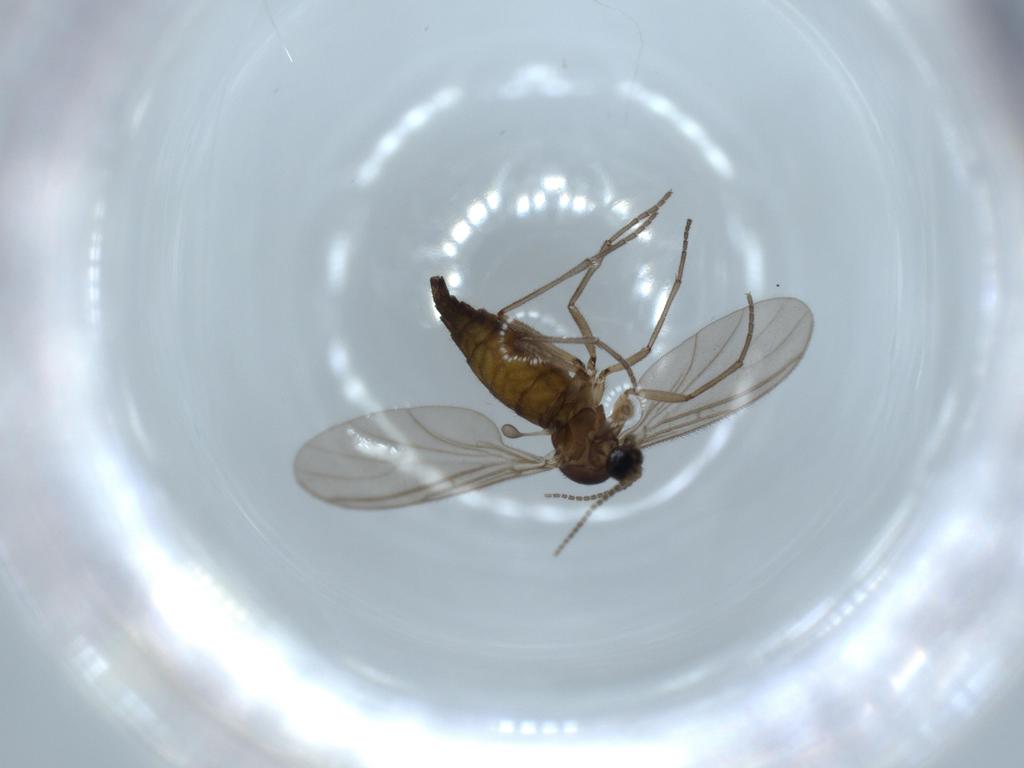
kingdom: Animalia
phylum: Arthropoda
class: Insecta
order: Diptera
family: Sciaridae
